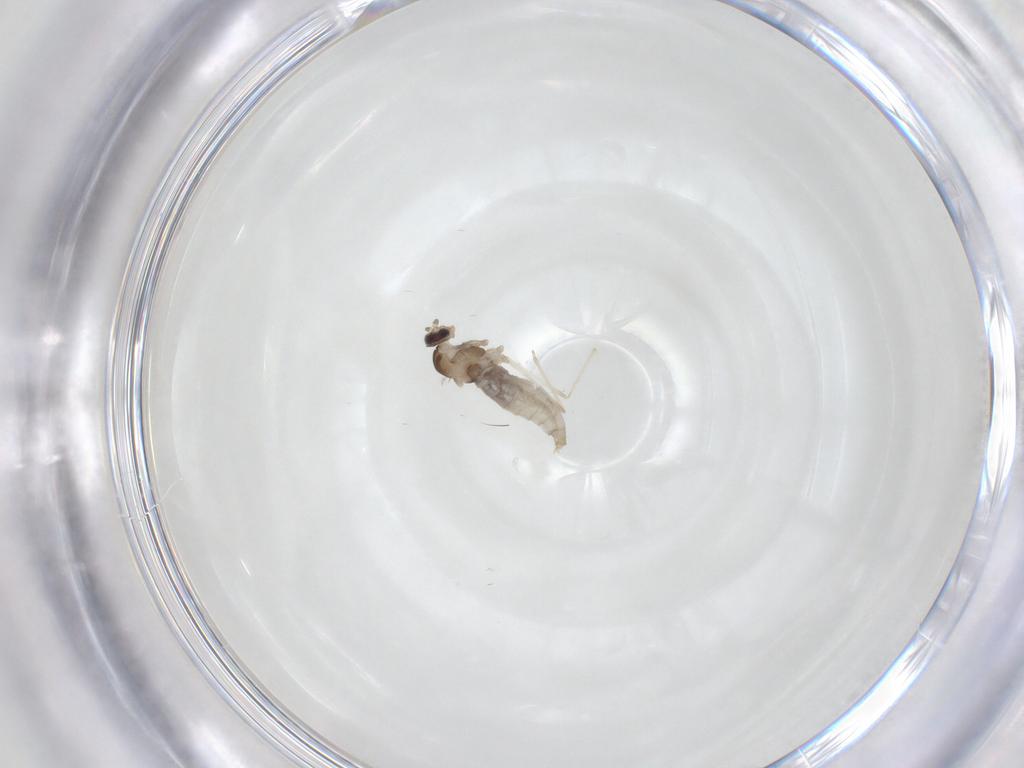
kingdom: Animalia
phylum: Arthropoda
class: Insecta
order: Diptera
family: Cecidomyiidae
